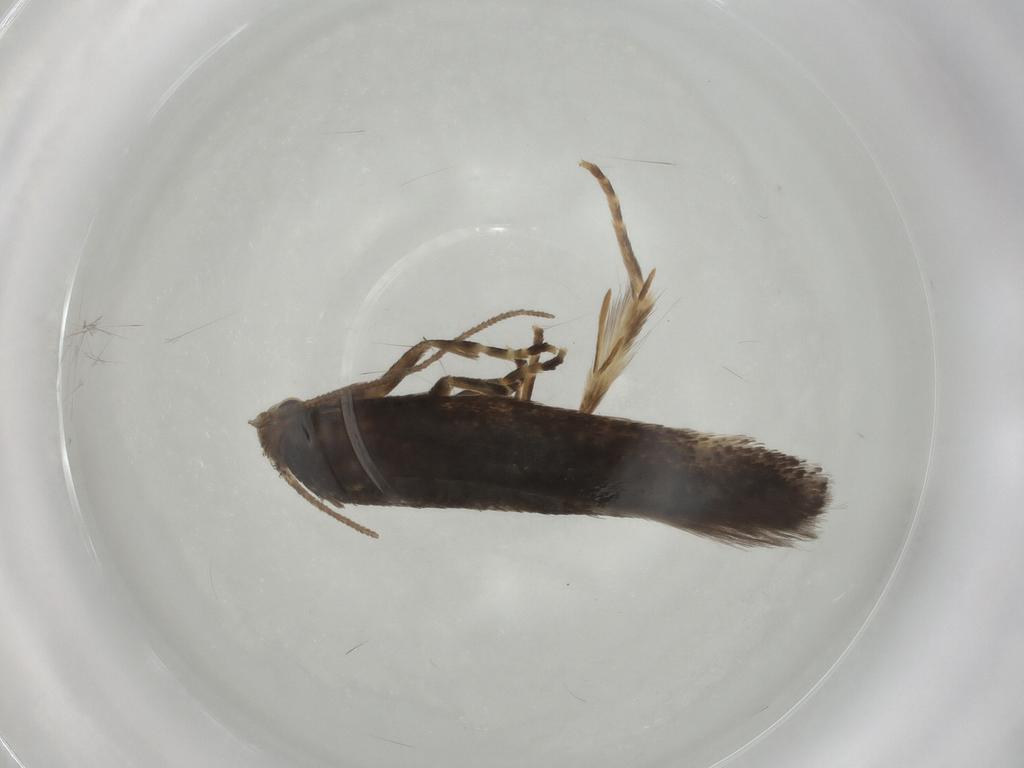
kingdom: Animalia
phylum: Arthropoda
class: Insecta
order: Lepidoptera
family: Elachistidae
